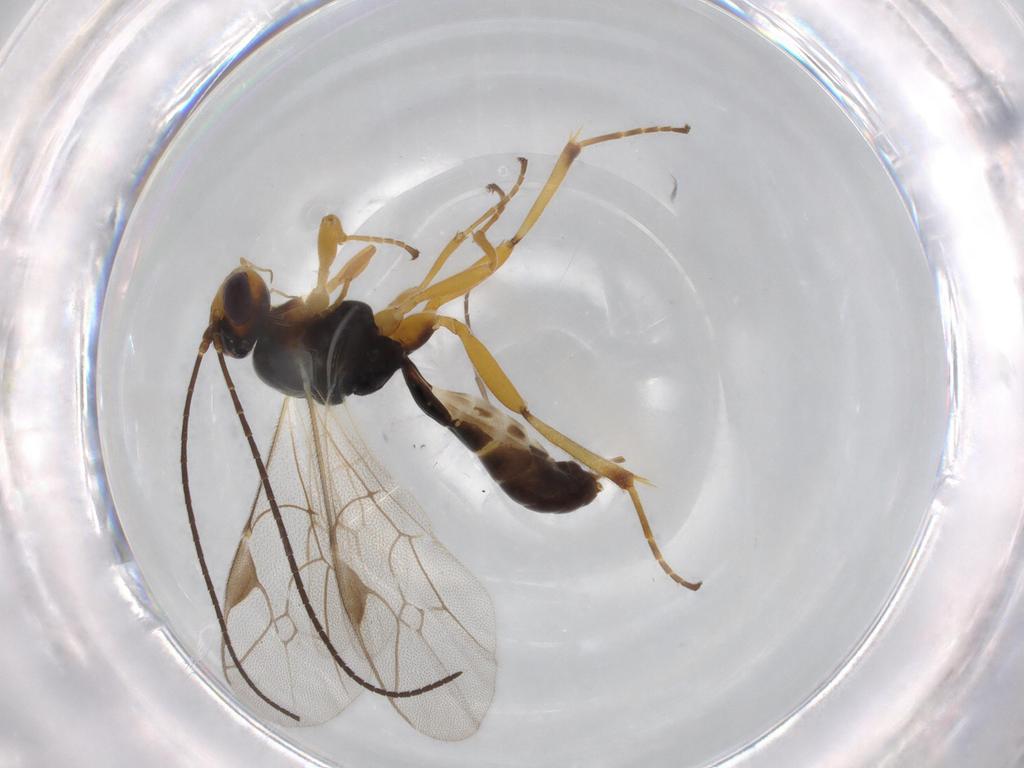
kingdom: Animalia
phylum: Arthropoda
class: Insecta
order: Hymenoptera
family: Ichneumonidae
